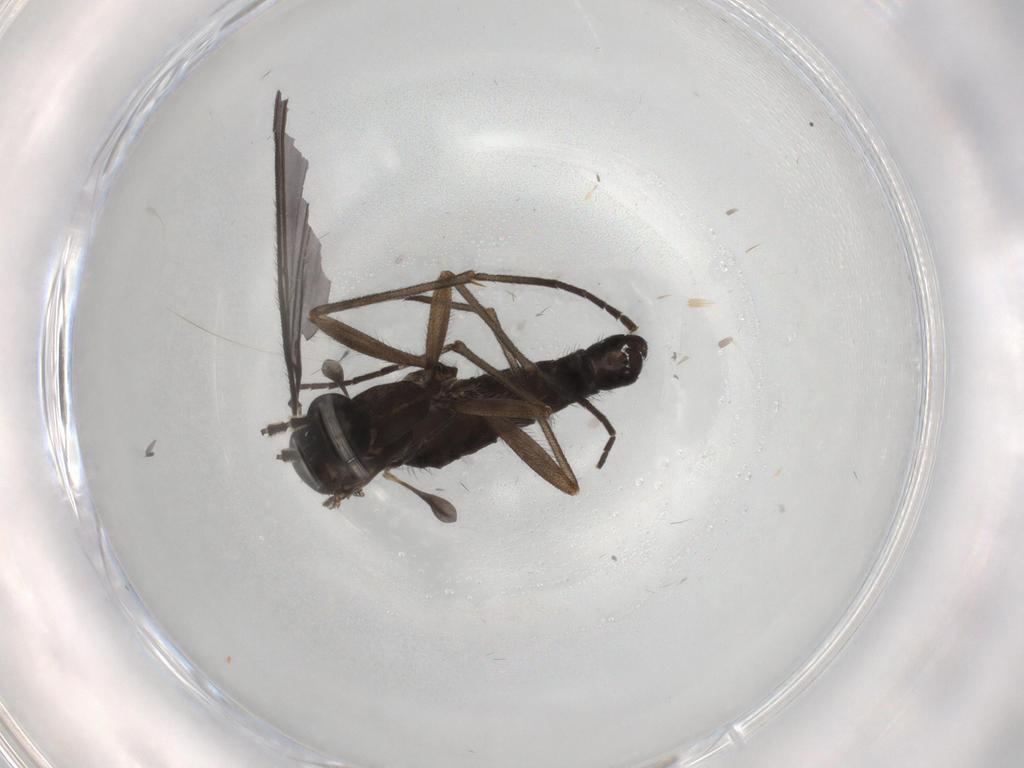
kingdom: Animalia
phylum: Arthropoda
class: Insecta
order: Diptera
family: Sciaridae
